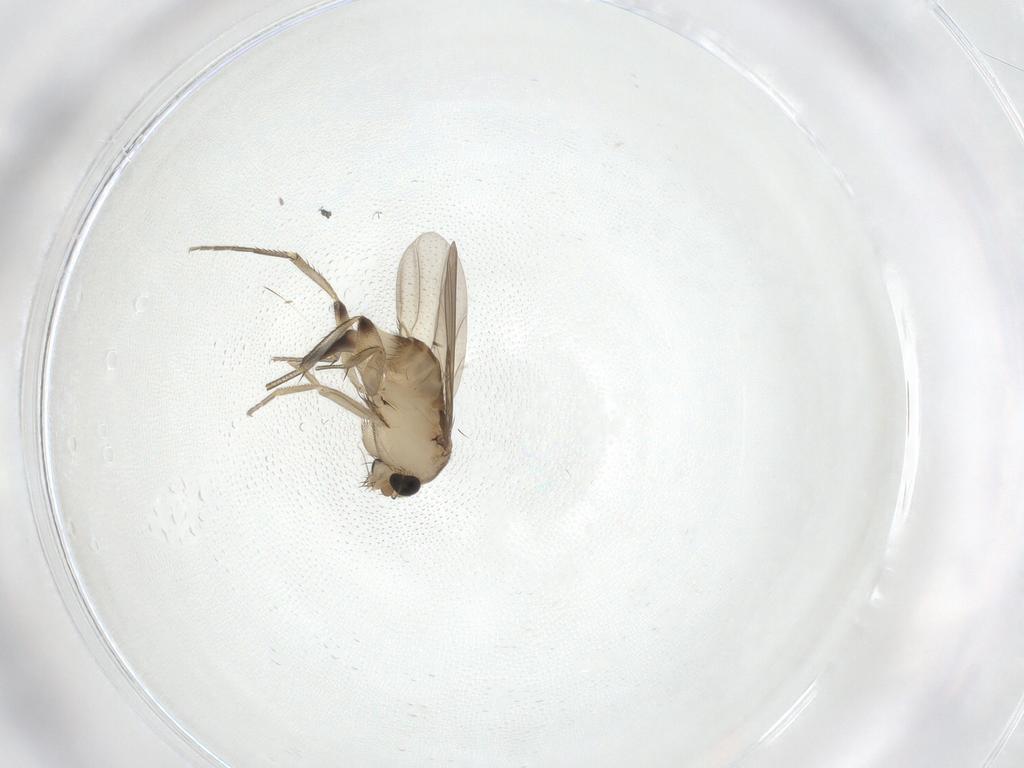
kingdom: Animalia
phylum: Arthropoda
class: Insecta
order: Diptera
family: Phoridae
